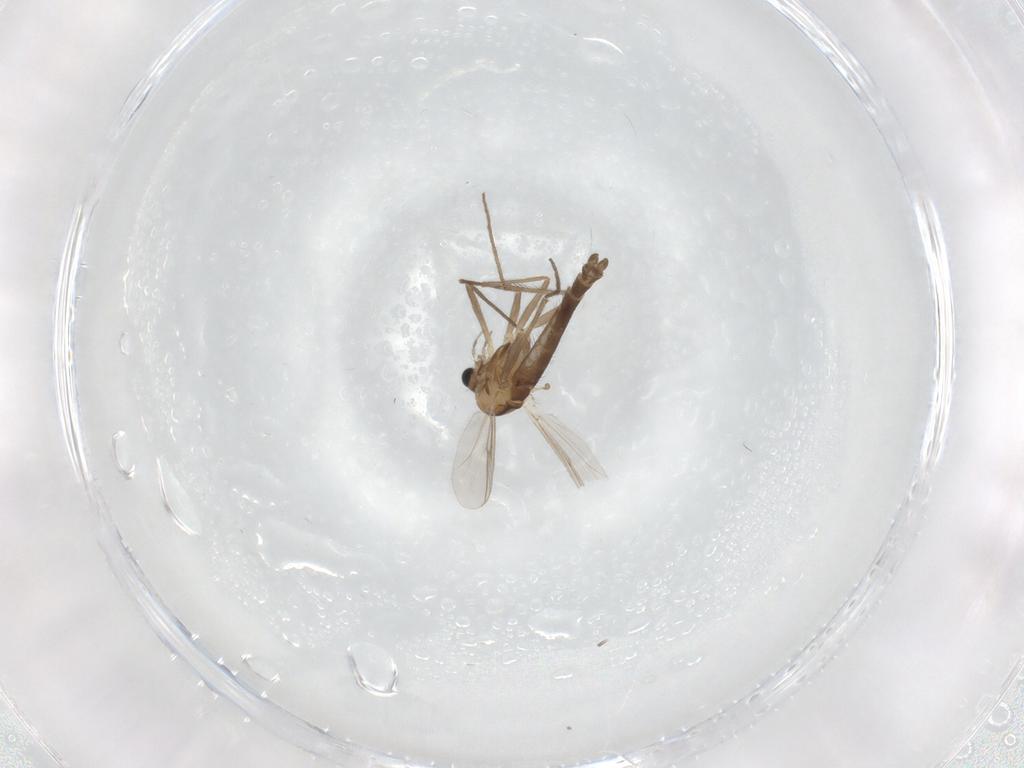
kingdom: Animalia
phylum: Arthropoda
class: Insecta
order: Diptera
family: Chironomidae
